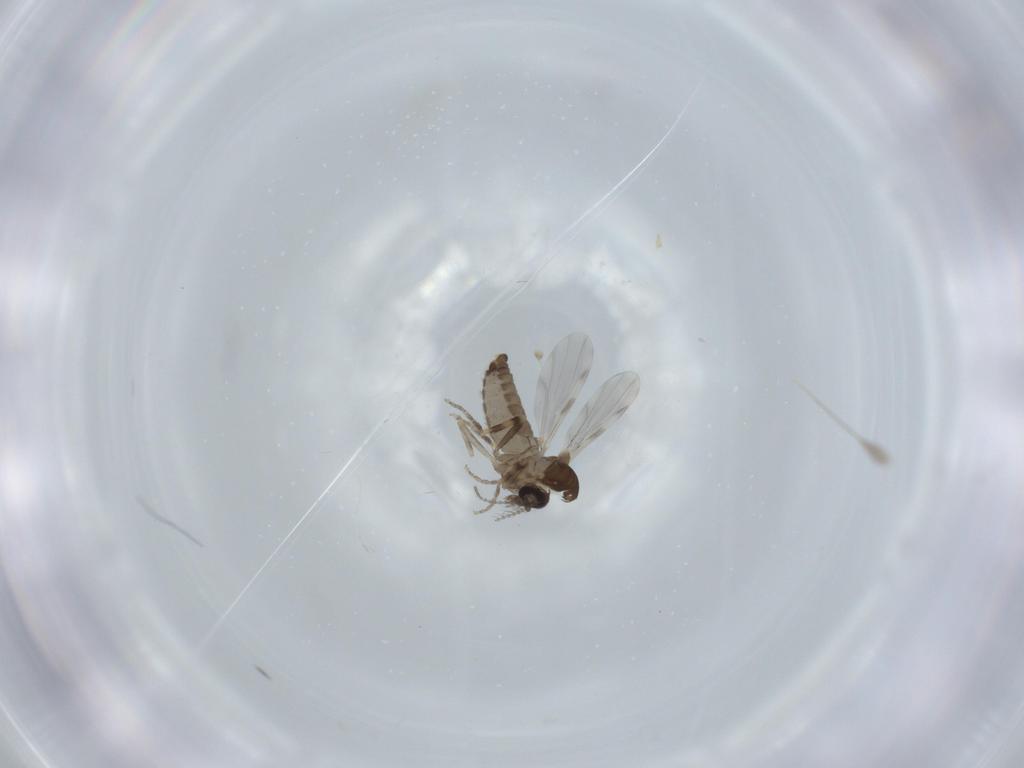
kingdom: Animalia
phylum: Arthropoda
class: Insecta
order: Diptera
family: Ceratopogonidae
